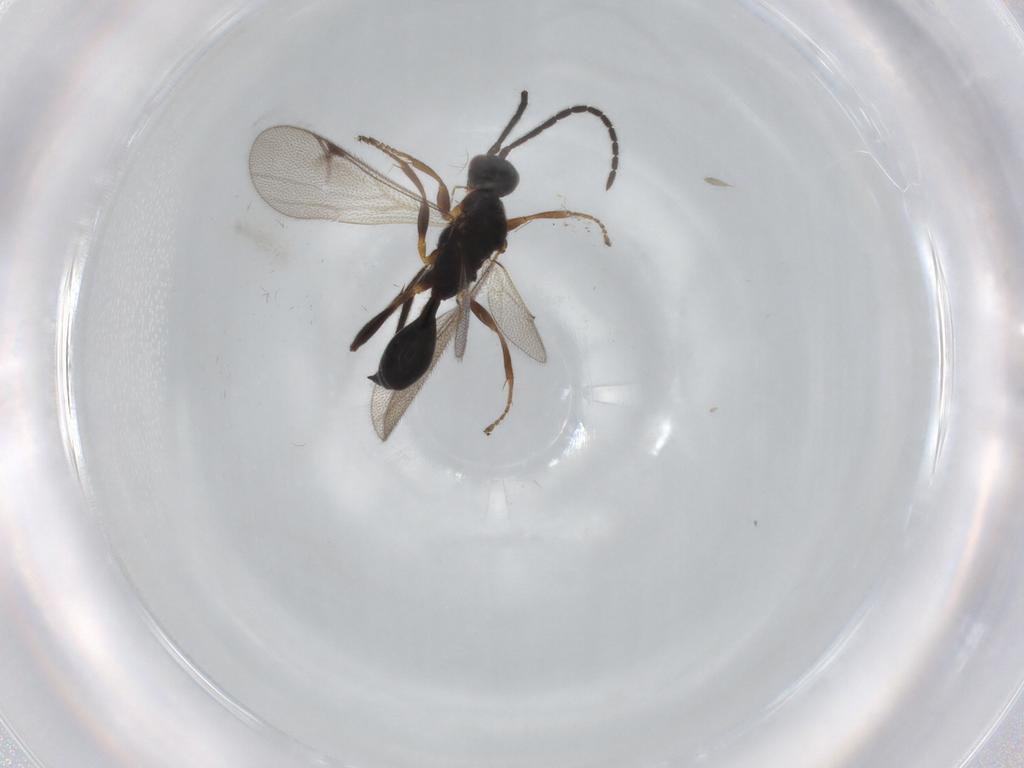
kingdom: Animalia
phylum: Arthropoda
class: Insecta
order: Hymenoptera
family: Proctotrupidae
